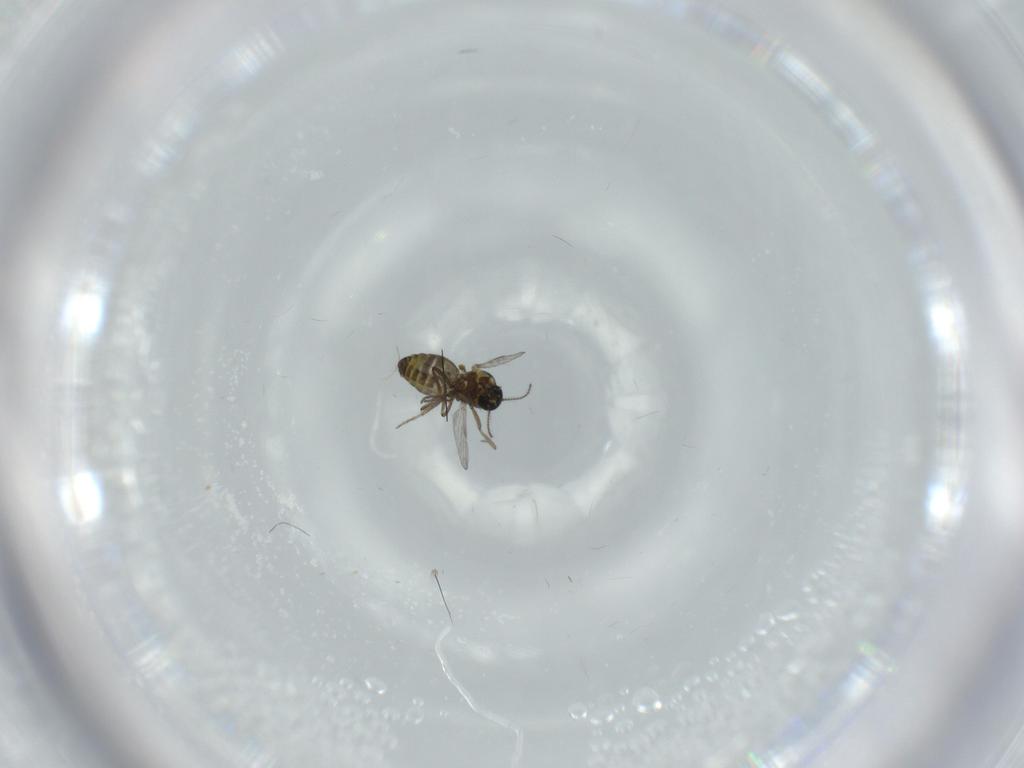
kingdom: Animalia
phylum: Arthropoda
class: Insecta
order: Diptera
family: Ceratopogonidae
